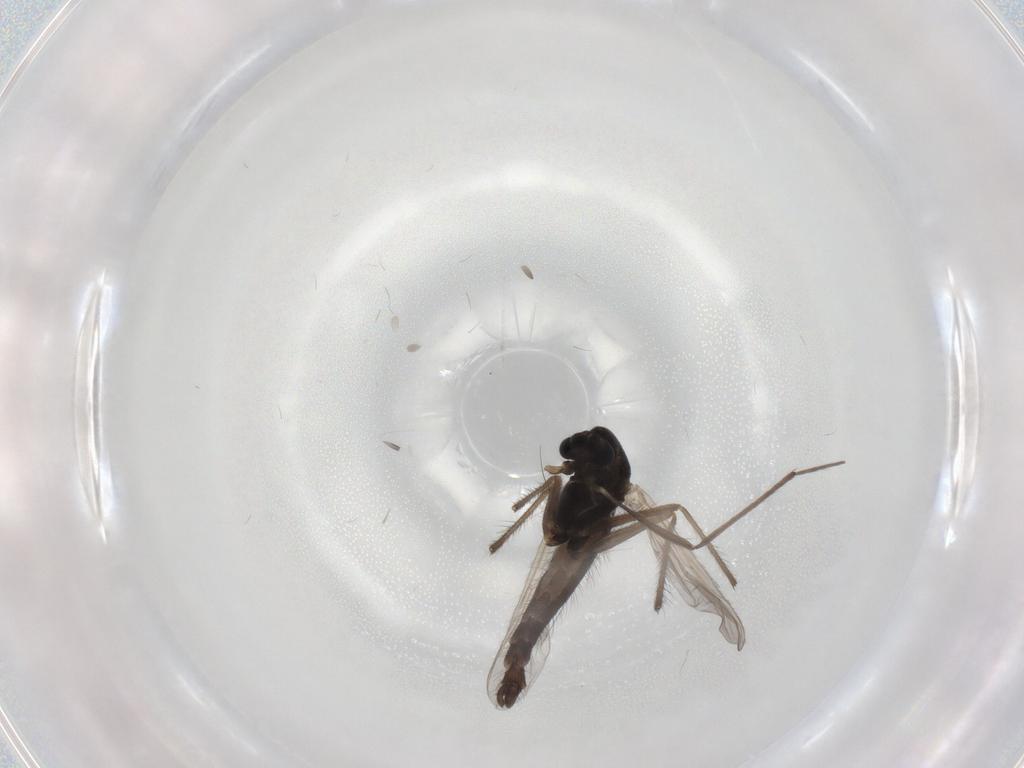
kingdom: Animalia
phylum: Arthropoda
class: Insecta
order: Diptera
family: Chironomidae
